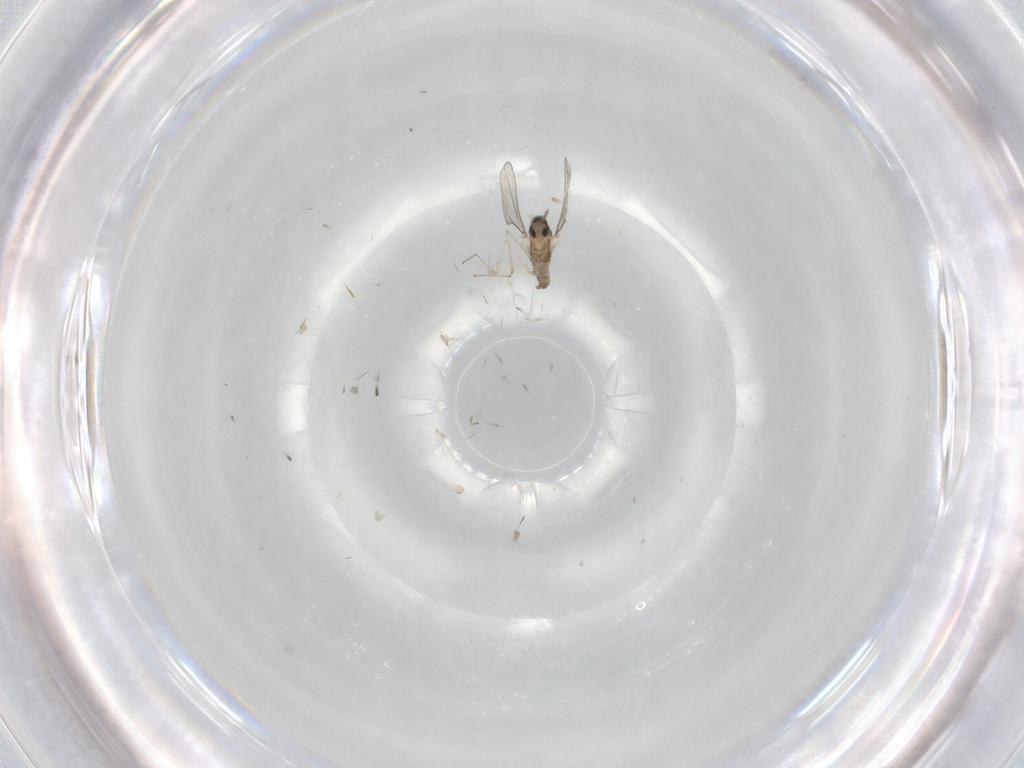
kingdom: Animalia
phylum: Arthropoda
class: Insecta
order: Diptera
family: Cecidomyiidae
